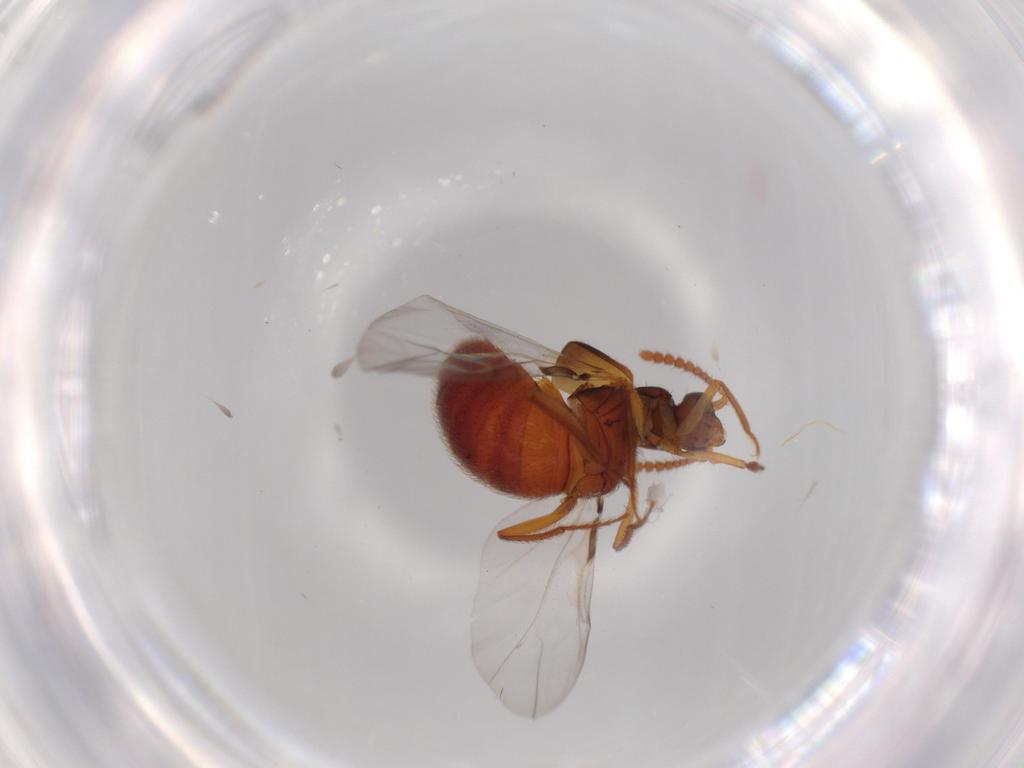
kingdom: Animalia
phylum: Arthropoda
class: Insecta
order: Coleoptera
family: Staphylinidae
